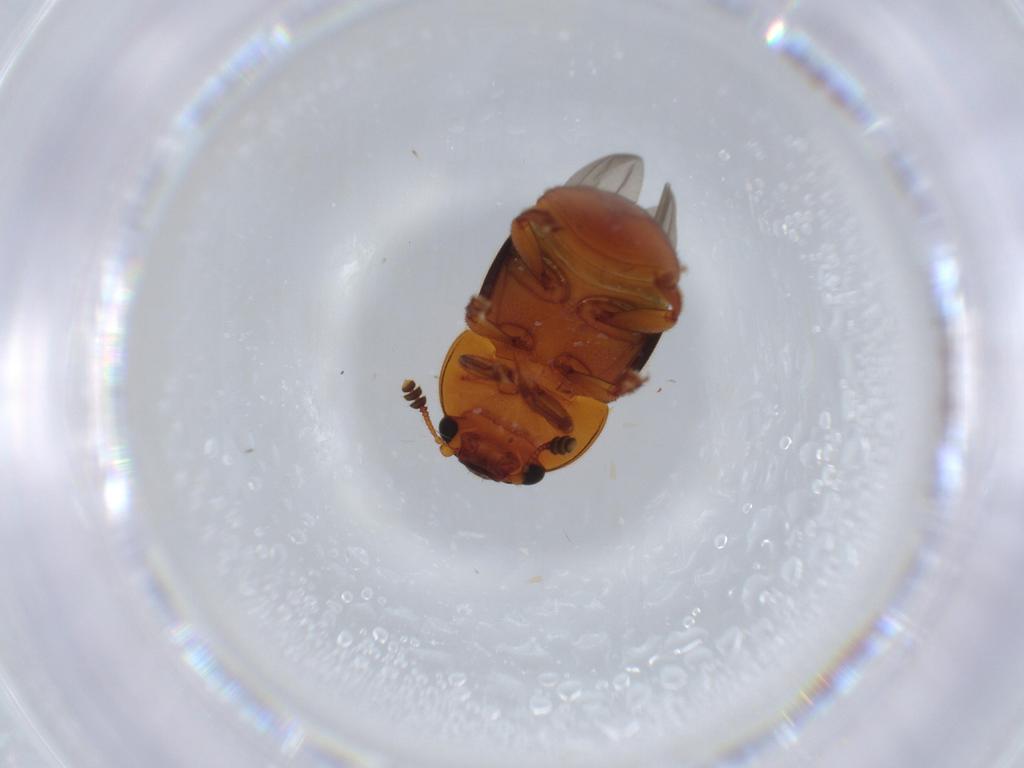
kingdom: Animalia
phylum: Arthropoda
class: Insecta
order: Coleoptera
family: Nitidulidae
